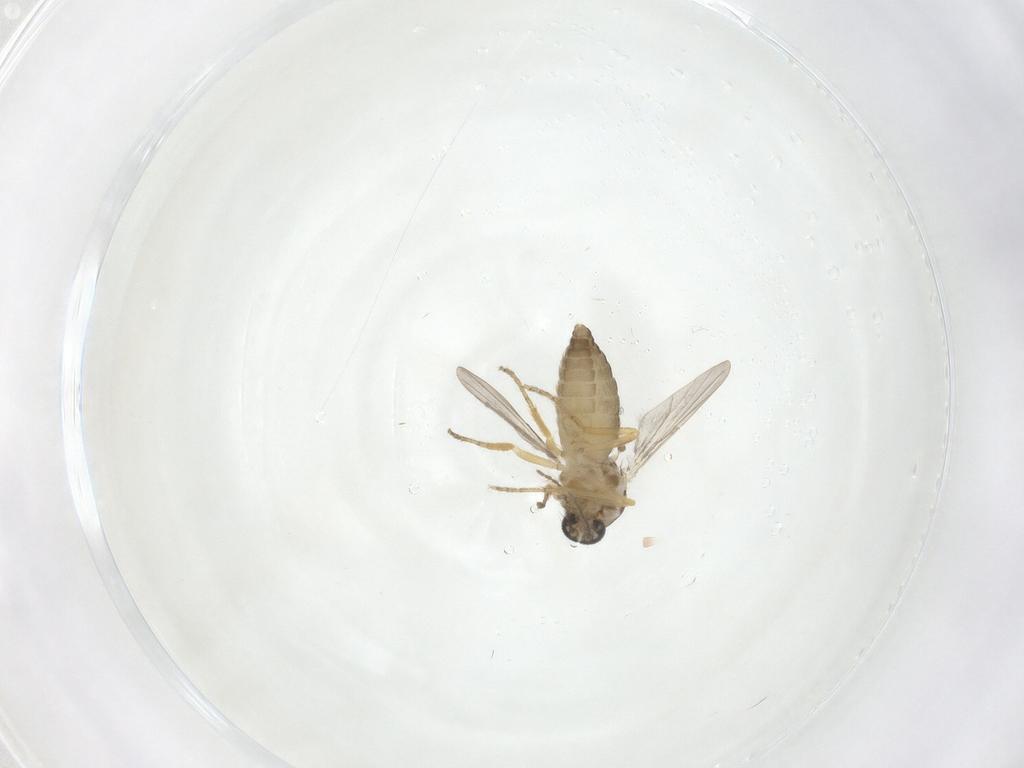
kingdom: Animalia
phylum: Arthropoda
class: Insecta
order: Diptera
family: Ceratopogonidae
